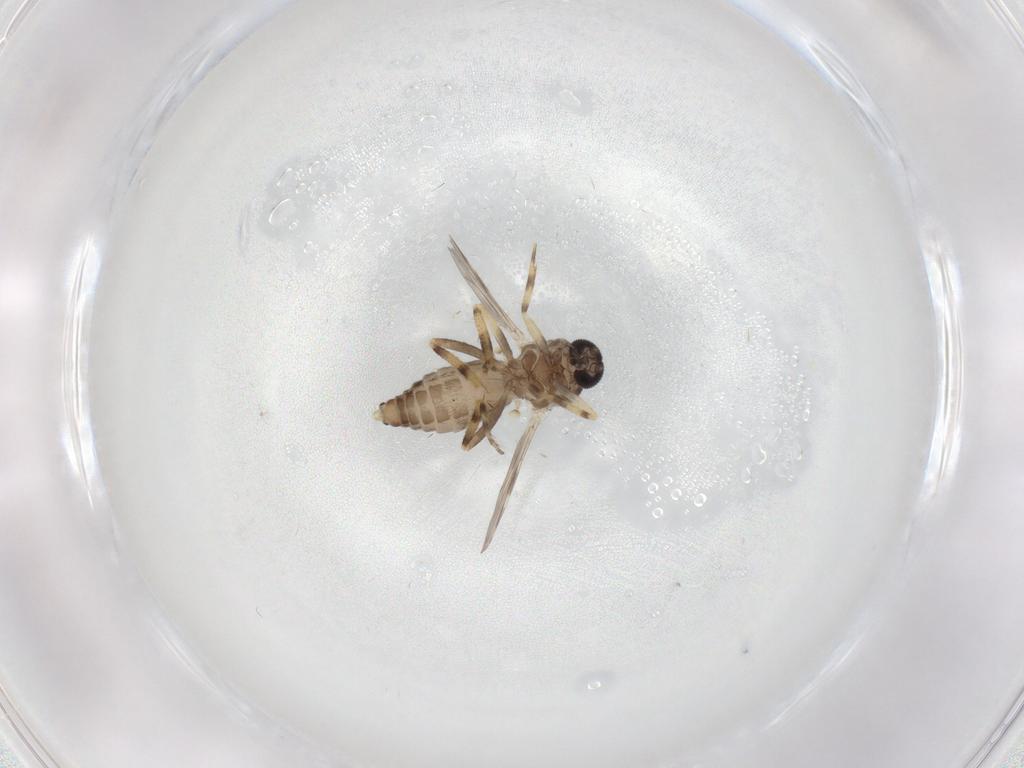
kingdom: Animalia
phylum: Arthropoda
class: Insecta
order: Diptera
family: Ceratopogonidae
